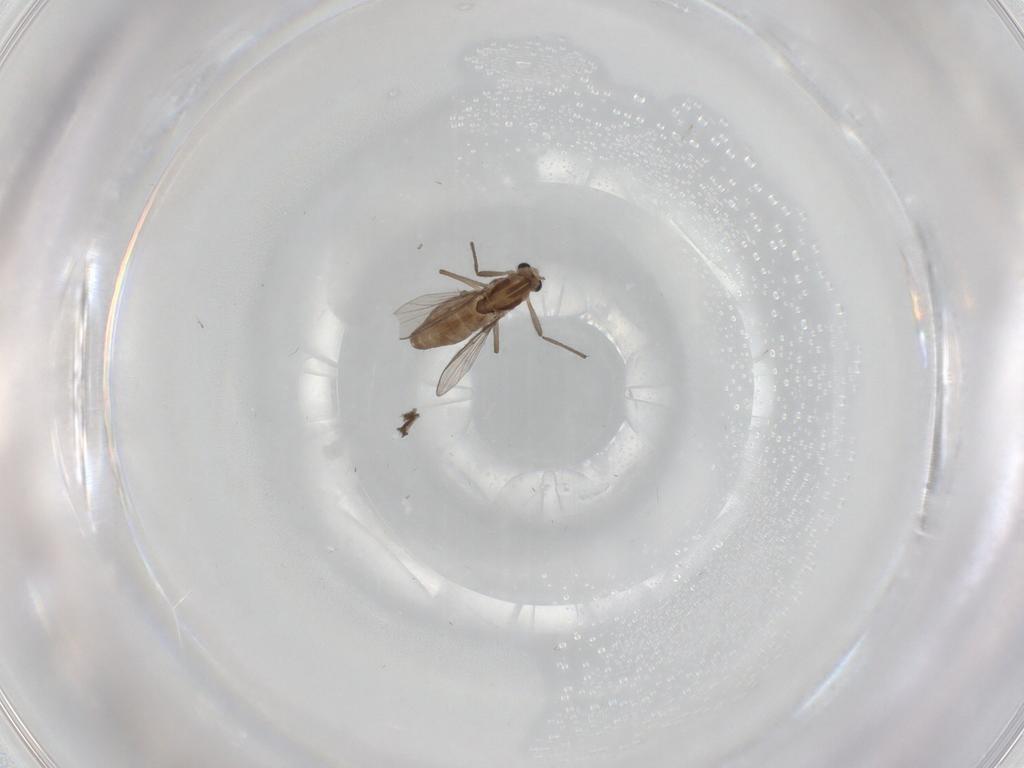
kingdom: Animalia
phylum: Arthropoda
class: Insecta
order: Diptera
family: Chironomidae
